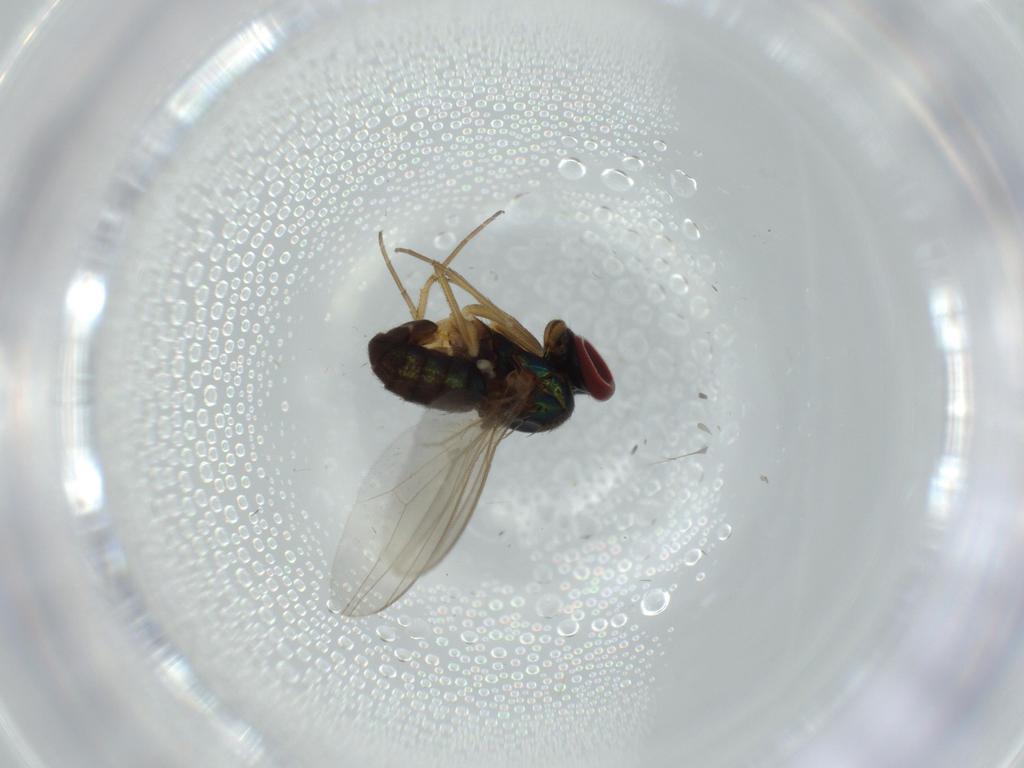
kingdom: Animalia
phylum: Arthropoda
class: Insecta
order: Diptera
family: Dolichopodidae
